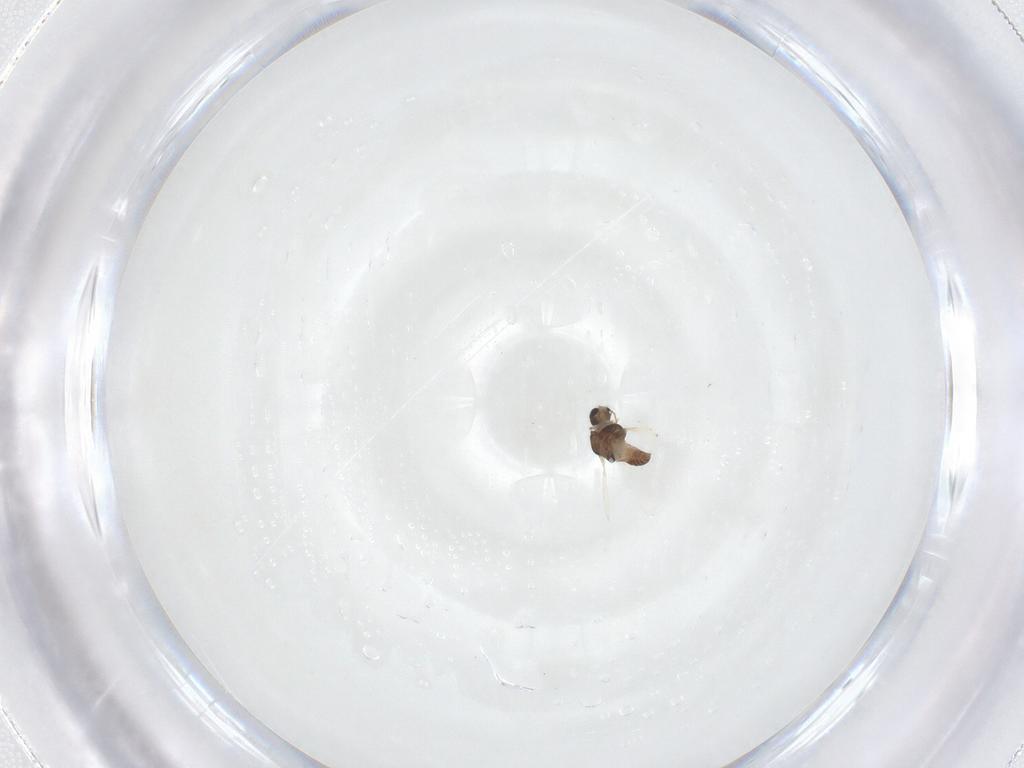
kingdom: Animalia
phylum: Arthropoda
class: Insecta
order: Diptera
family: Chironomidae
